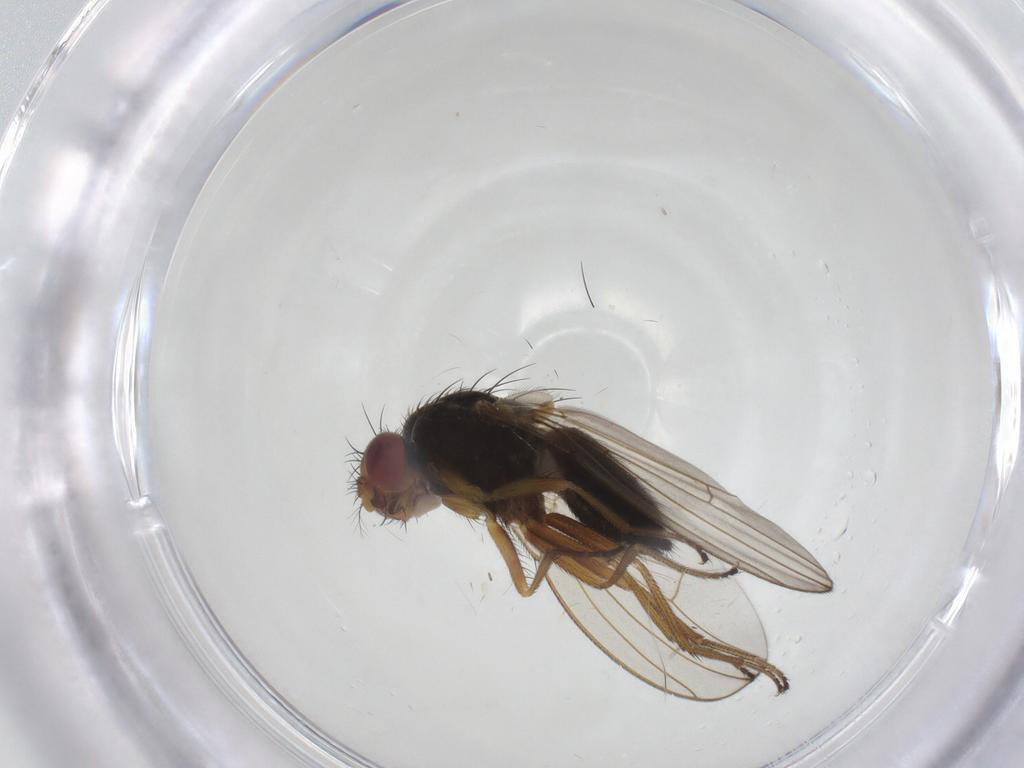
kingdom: Animalia
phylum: Arthropoda
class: Insecta
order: Diptera
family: Drosophilidae
